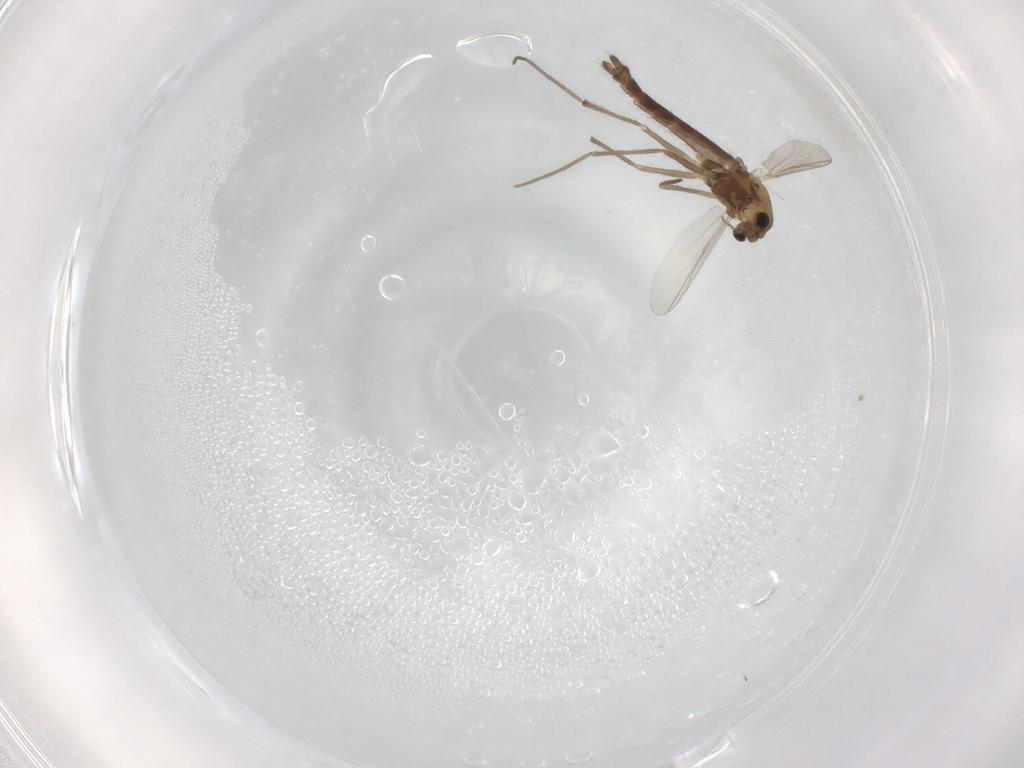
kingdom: Animalia
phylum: Arthropoda
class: Insecta
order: Diptera
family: Chironomidae
